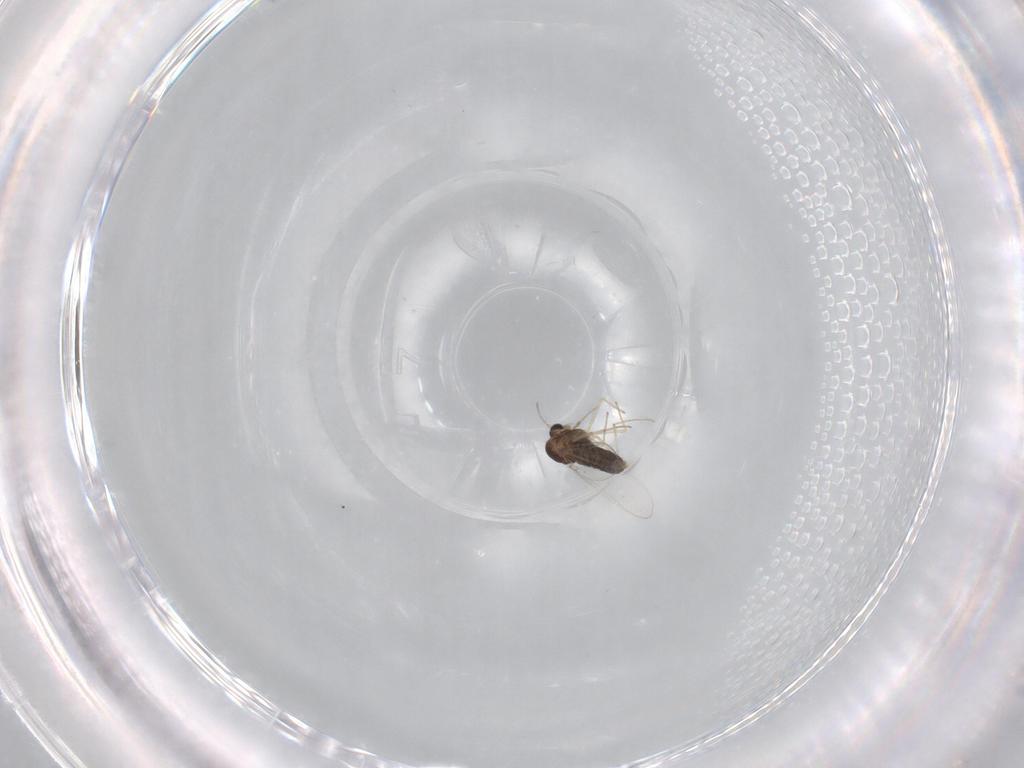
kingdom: Animalia
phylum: Arthropoda
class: Insecta
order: Diptera
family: Chironomidae
